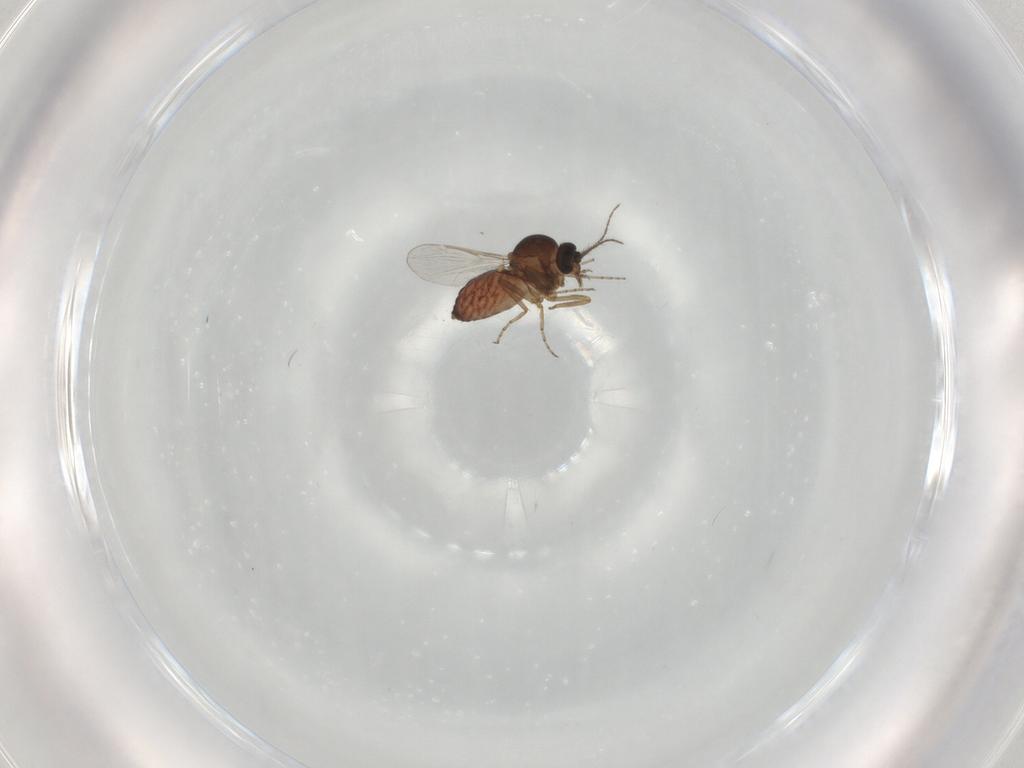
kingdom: Animalia
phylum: Arthropoda
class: Insecta
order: Diptera
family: Ceratopogonidae
